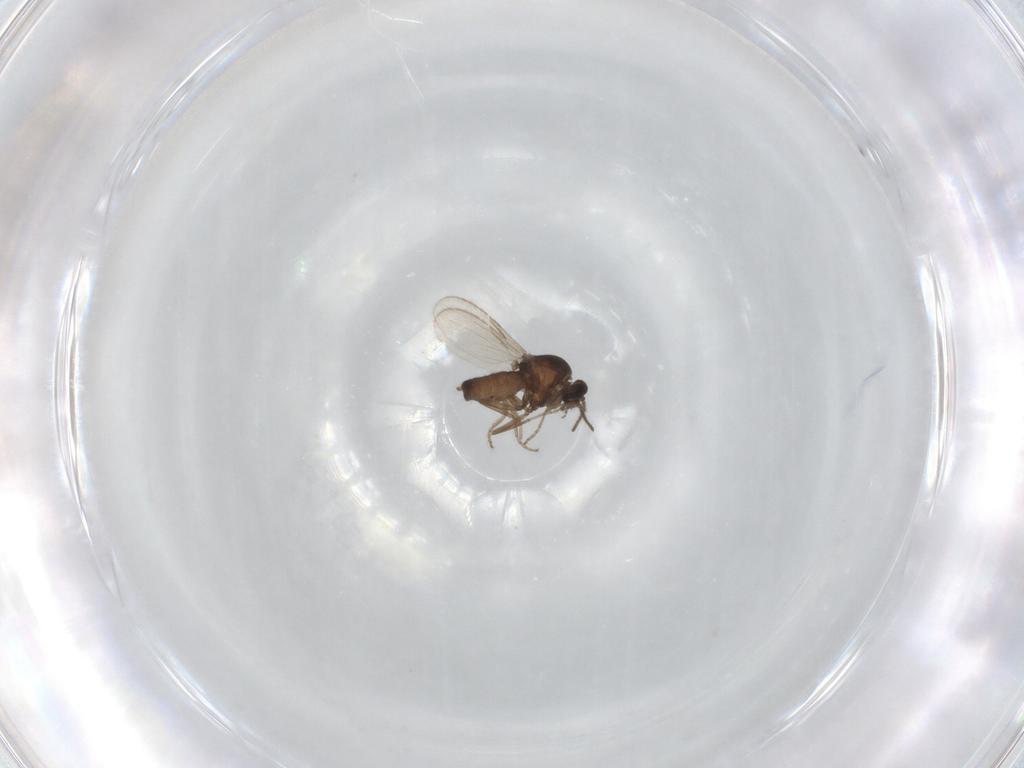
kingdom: Animalia
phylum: Arthropoda
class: Insecta
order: Diptera
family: Ceratopogonidae
